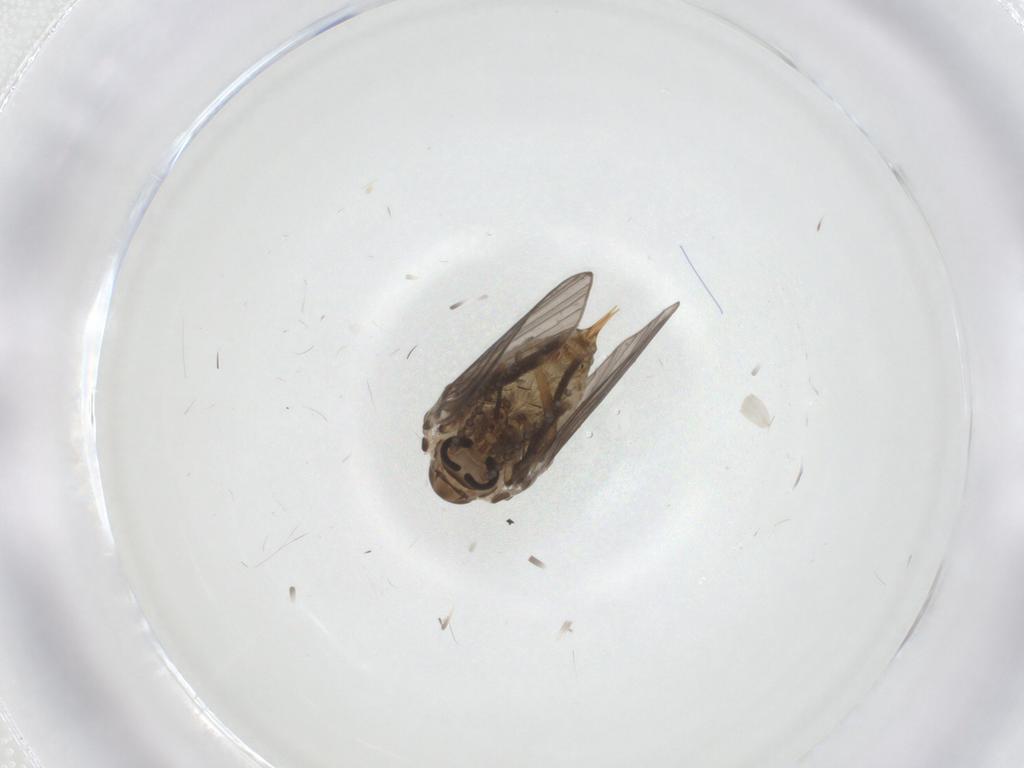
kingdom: Animalia
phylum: Arthropoda
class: Insecta
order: Diptera
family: Psychodidae
